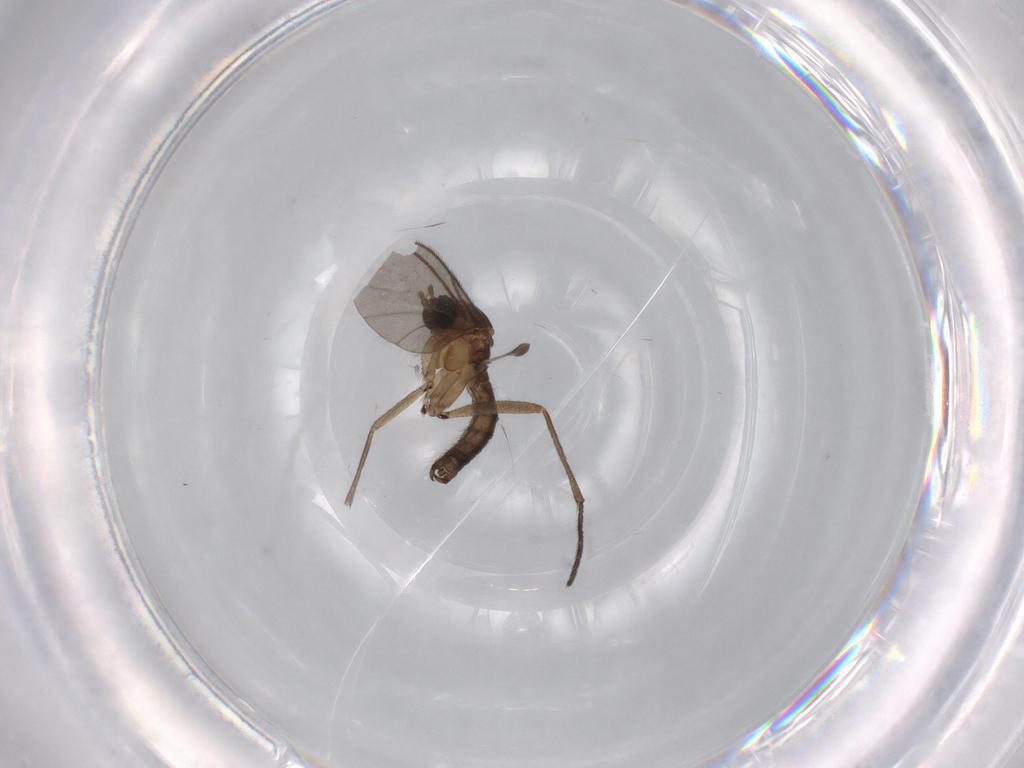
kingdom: Animalia
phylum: Arthropoda
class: Insecta
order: Diptera
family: Sciaridae
